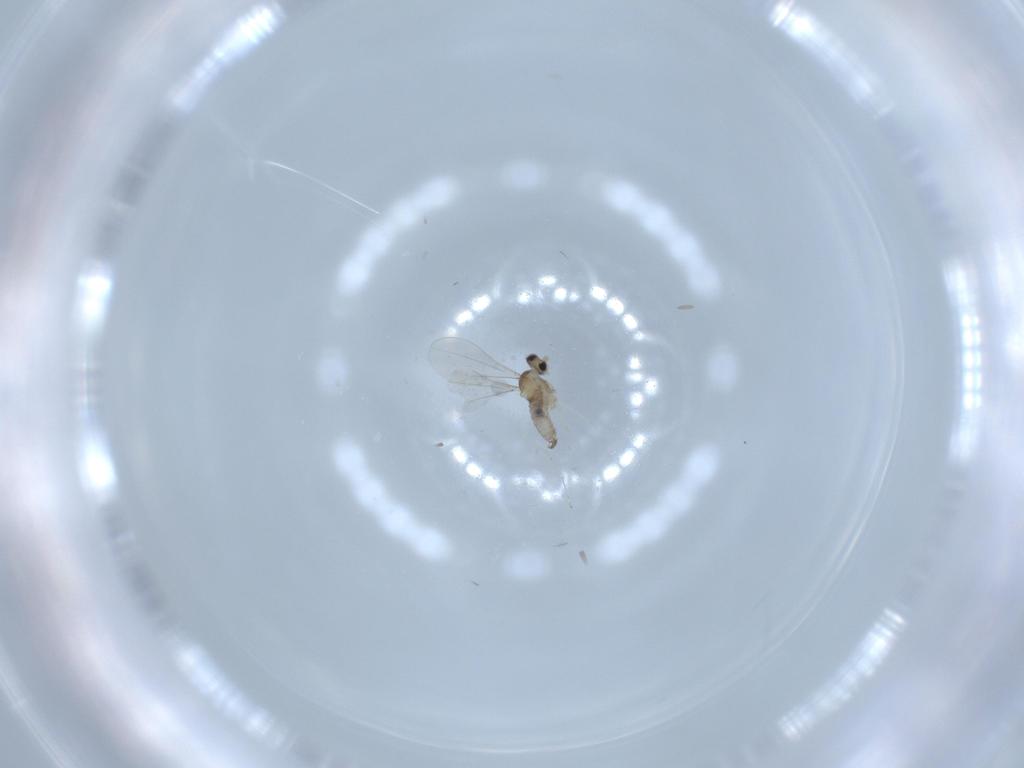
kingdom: Animalia
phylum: Arthropoda
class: Insecta
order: Diptera
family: Cecidomyiidae
